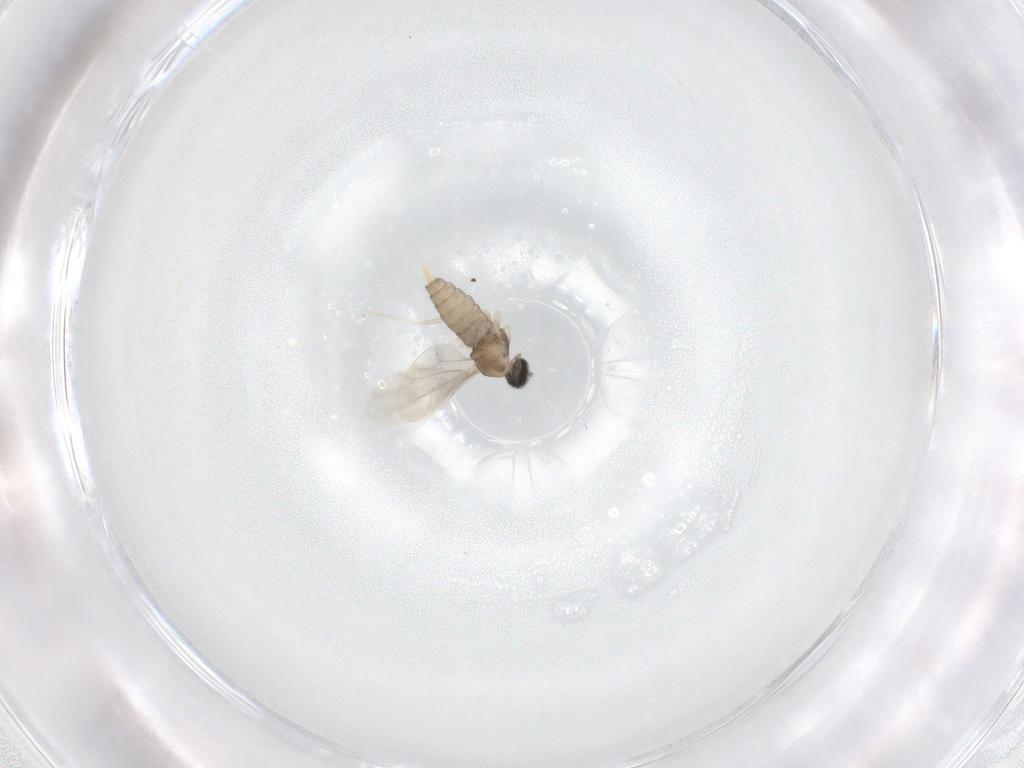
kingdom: Animalia
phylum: Arthropoda
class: Insecta
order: Diptera
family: Cecidomyiidae
